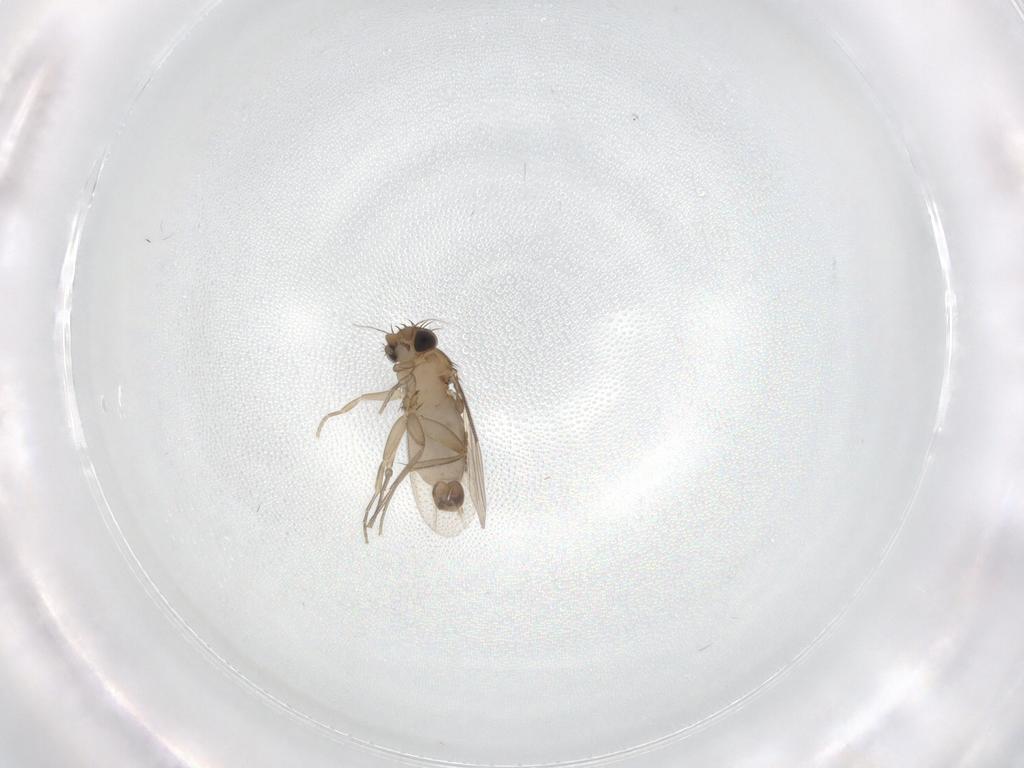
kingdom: Animalia
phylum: Arthropoda
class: Insecta
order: Diptera
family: Phoridae
